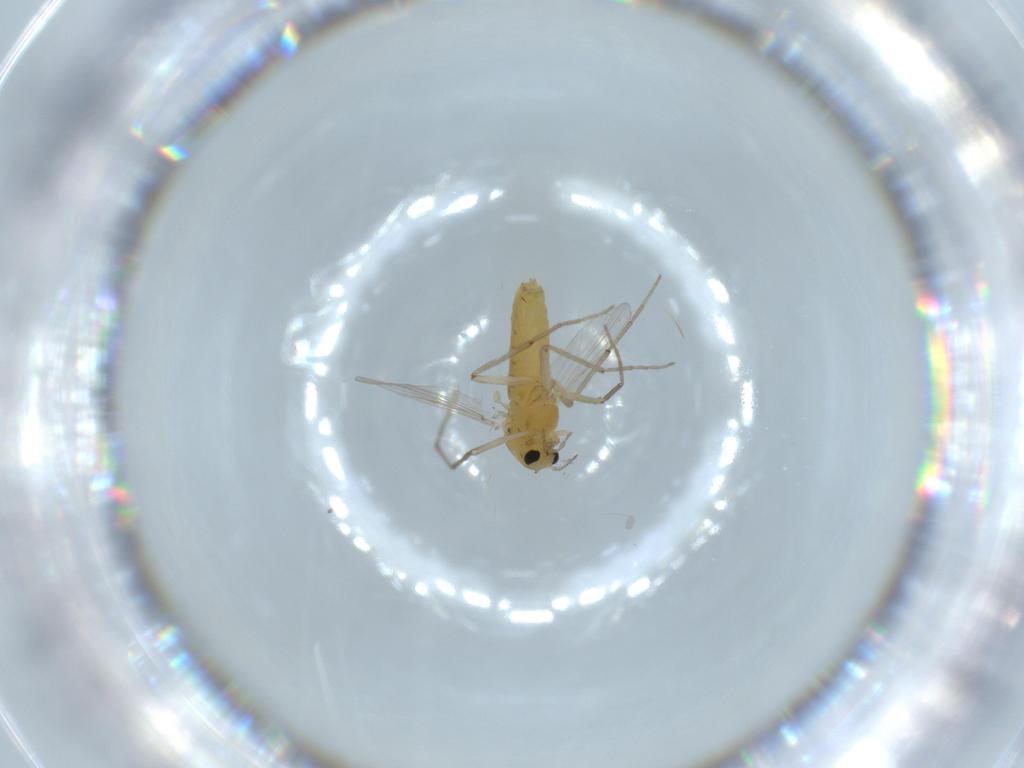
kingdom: Animalia
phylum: Arthropoda
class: Insecta
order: Diptera
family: Chironomidae
